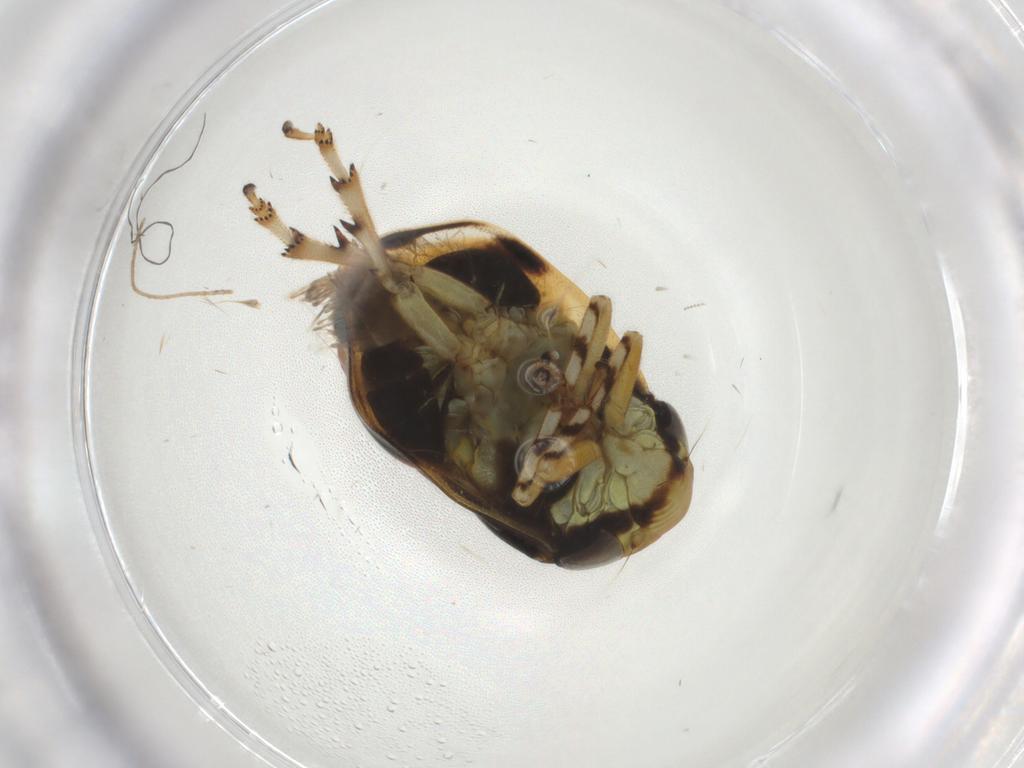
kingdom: Animalia
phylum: Arthropoda
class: Insecta
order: Hemiptera
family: Clastopteridae
